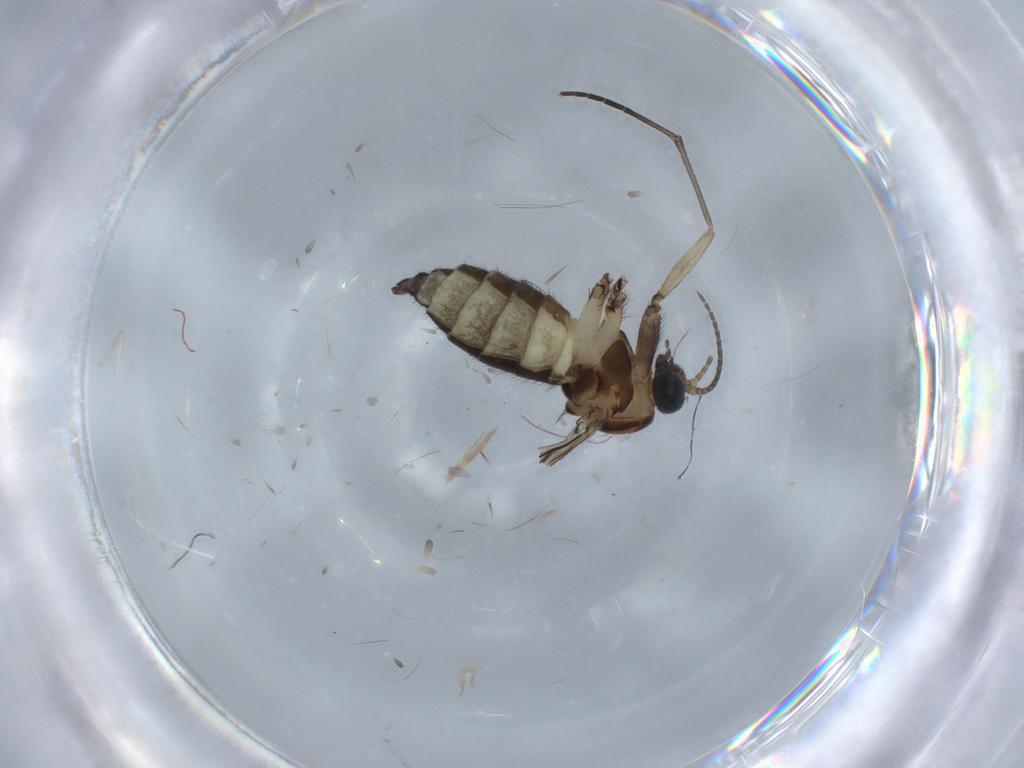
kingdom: Animalia
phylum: Arthropoda
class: Insecta
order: Diptera
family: Sciaridae
